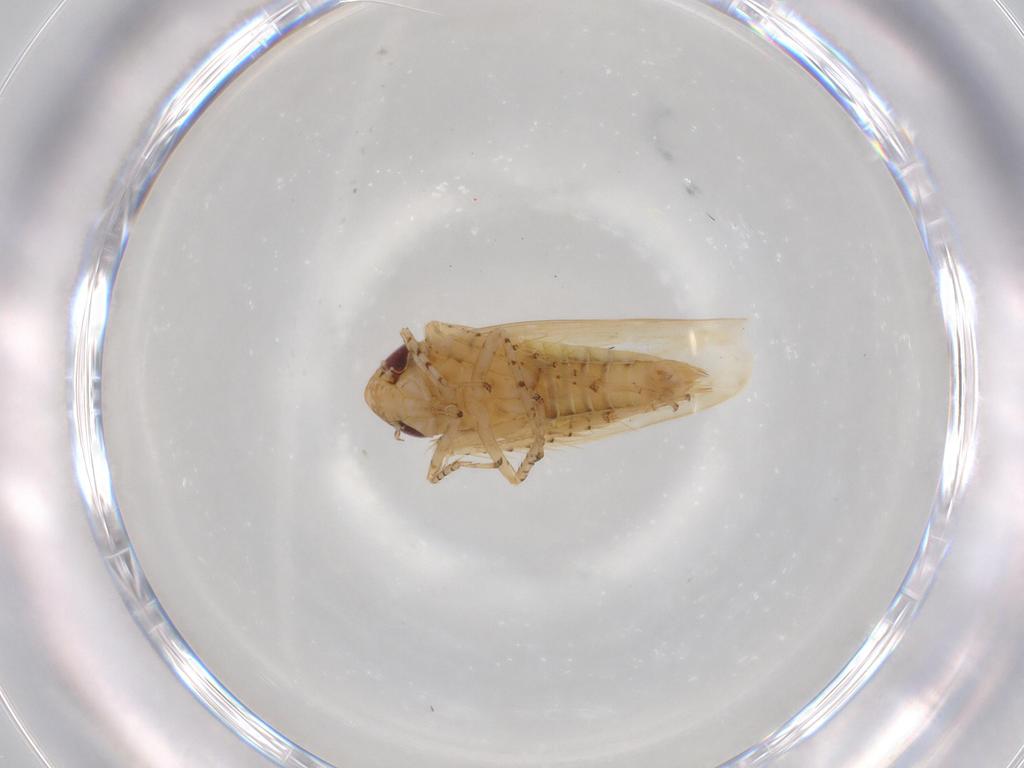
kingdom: Animalia
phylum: Arthropoda
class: Insecta
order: Hemiptera
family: Cicadellidae
